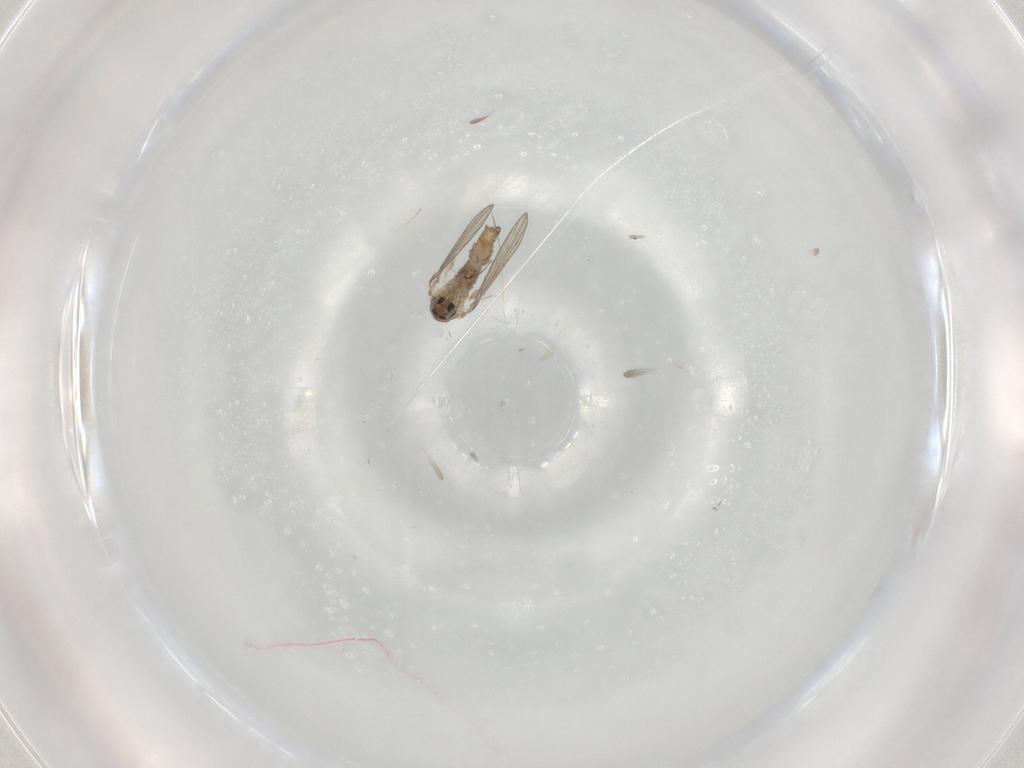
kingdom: Animalia
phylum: Arthropoda
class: Insecta
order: Diptera
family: Psychodidae
